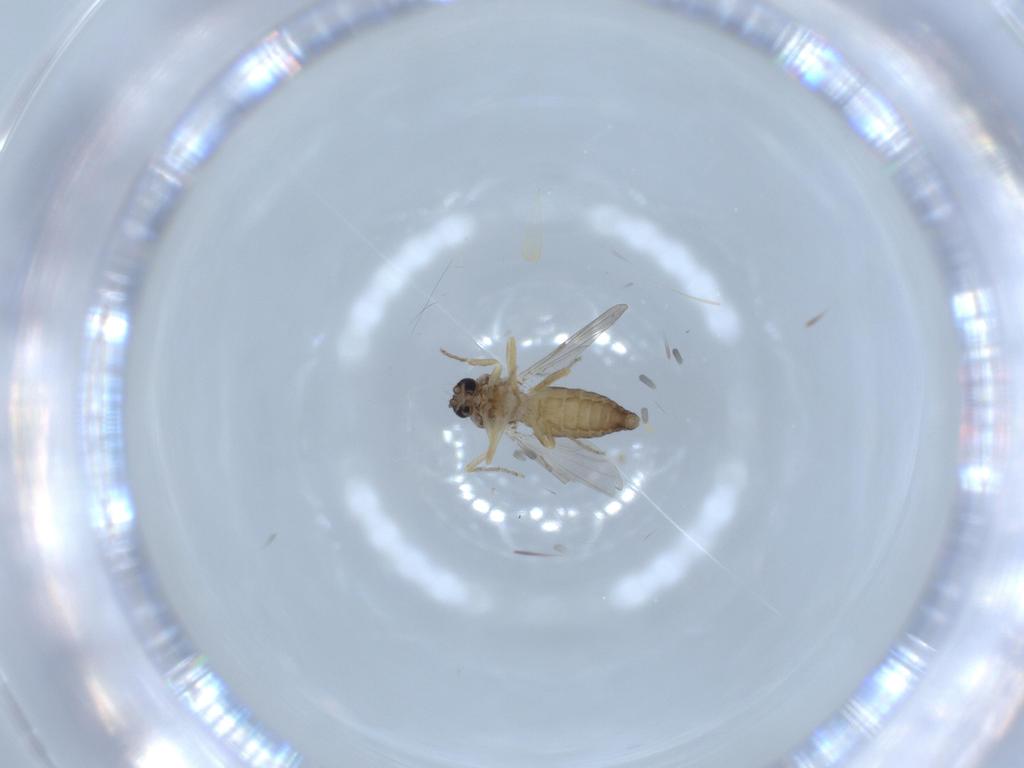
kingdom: Animalia
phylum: Arthropoda
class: Insecta
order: Diptera
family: Ceratopogonidae
